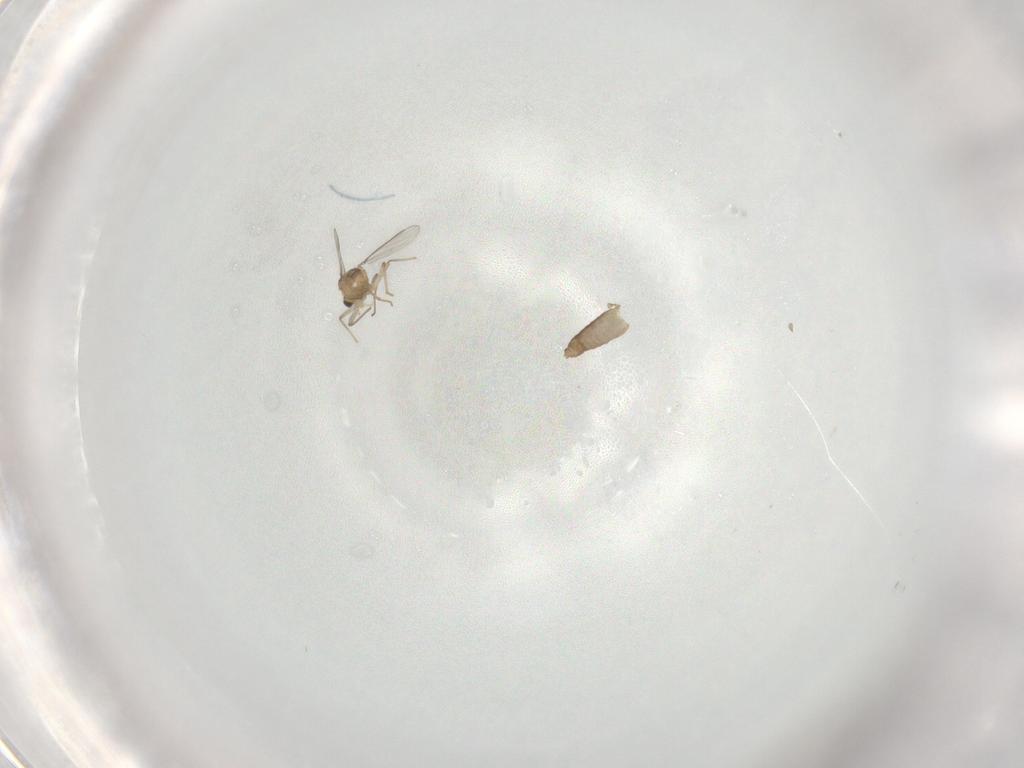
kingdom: Animalia
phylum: Arthropoda
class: Insecta
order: Diptera
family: Chironomidae
